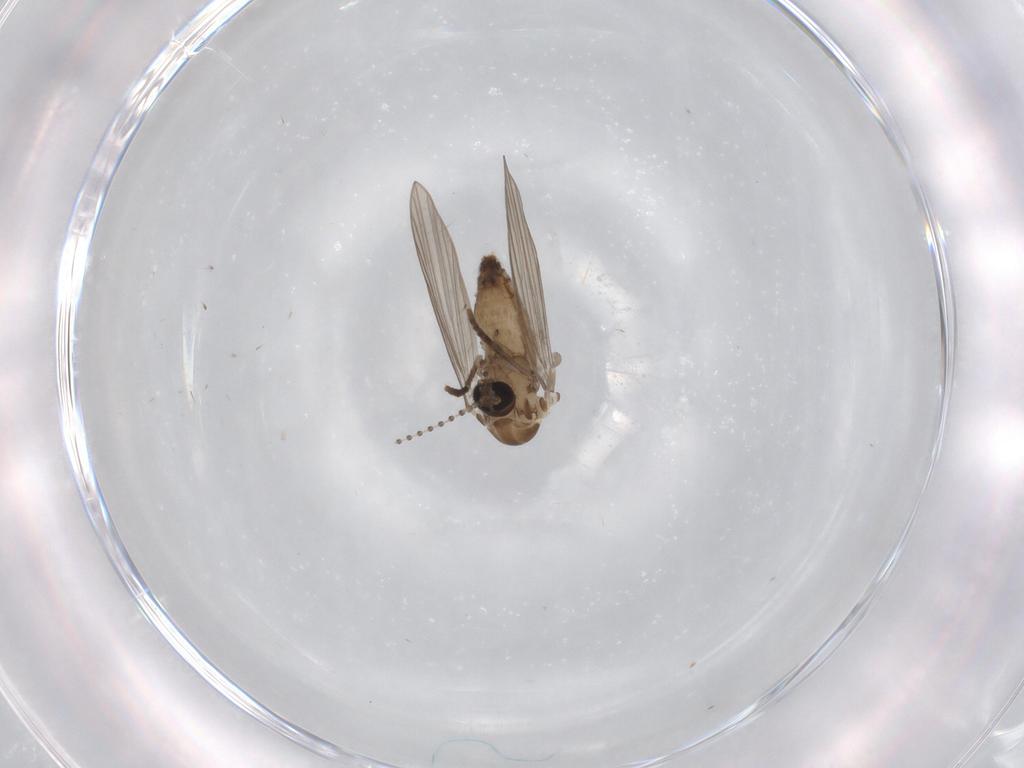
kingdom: Animalia
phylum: Arthropoda
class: Insecta
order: Diptera
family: Psychodidae
